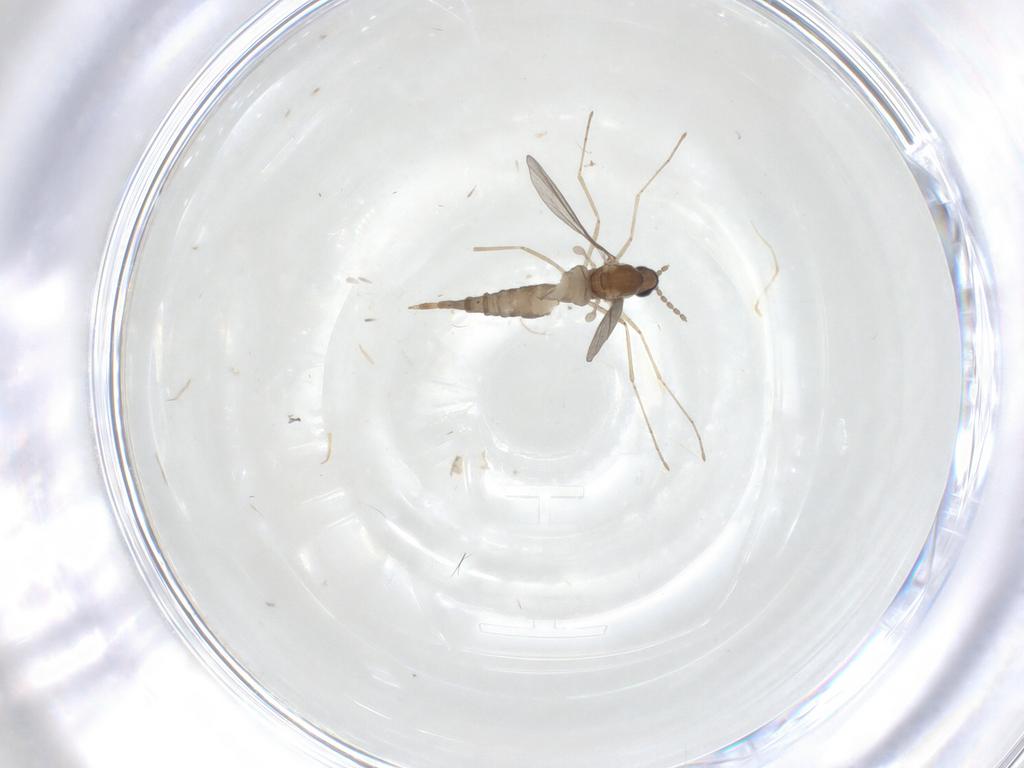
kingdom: Animalia
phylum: Arthropoda
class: Insecta
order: Diptera
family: Cecidomyiidae
